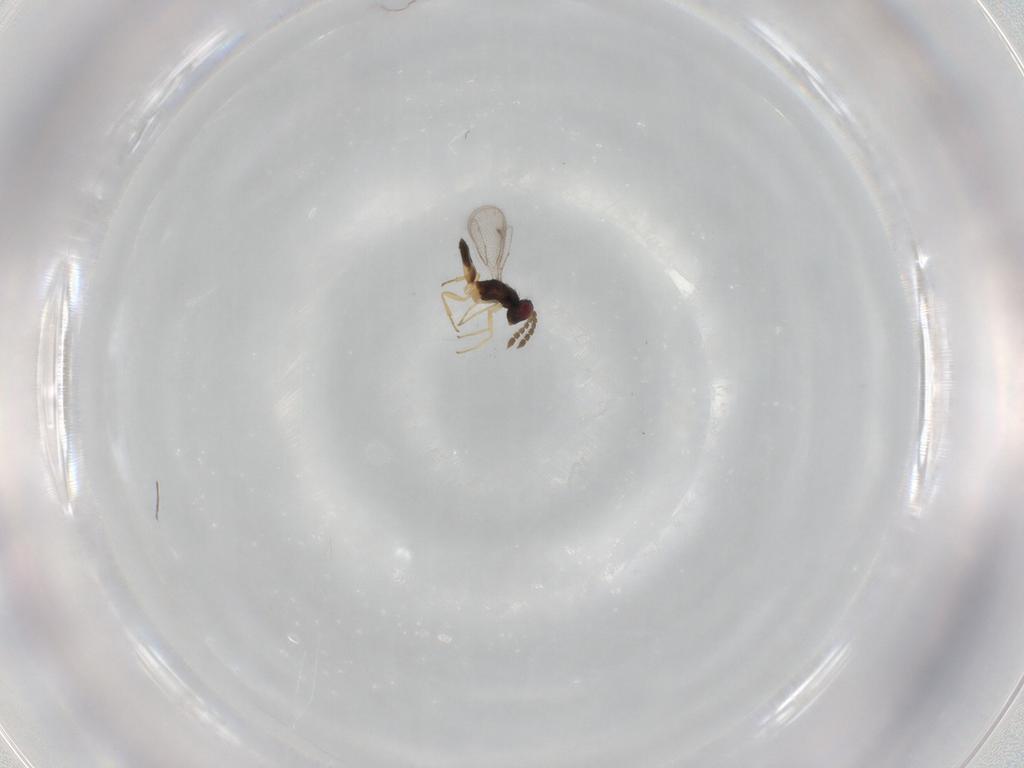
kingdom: Animalia
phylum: Arthropoda
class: Insecta
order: Hymenoptera
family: Eulophidae
